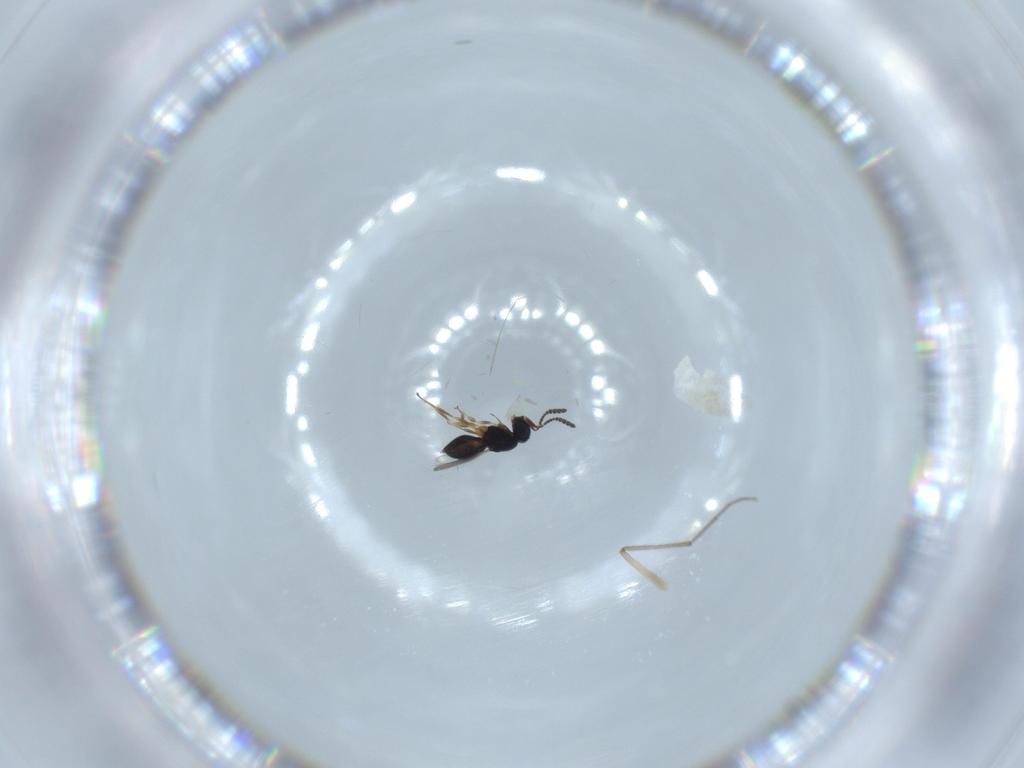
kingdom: Animalia
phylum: Arthropoda
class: Insecta
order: Hymenoptera
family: Scelionidae
